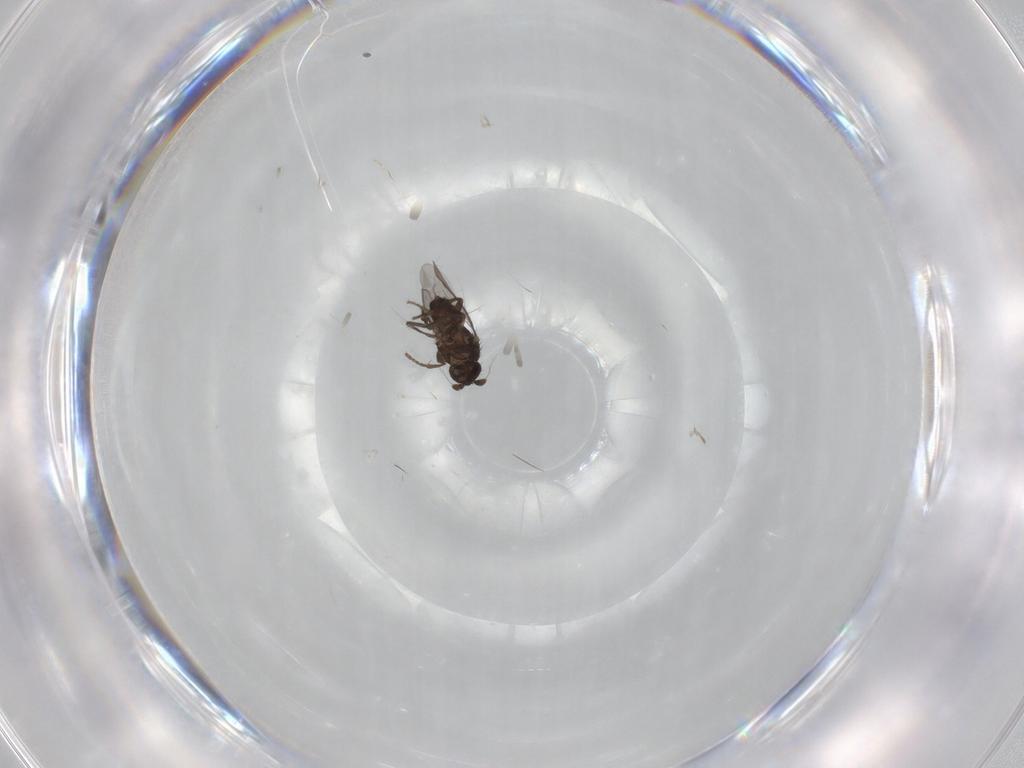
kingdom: Animalia
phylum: Arthropoda
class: Insecta
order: Diptera
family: Sphaeroceridae
